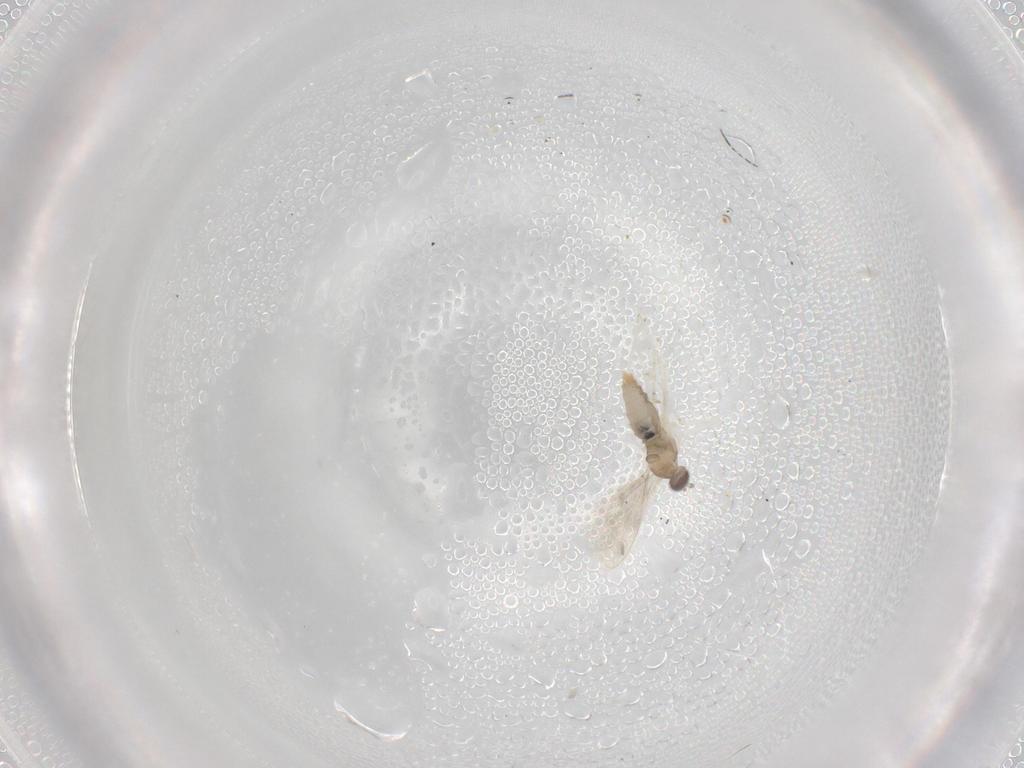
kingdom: Animalia
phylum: Arthropoda
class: Insecta
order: Diptera
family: Cecidomyiidae
